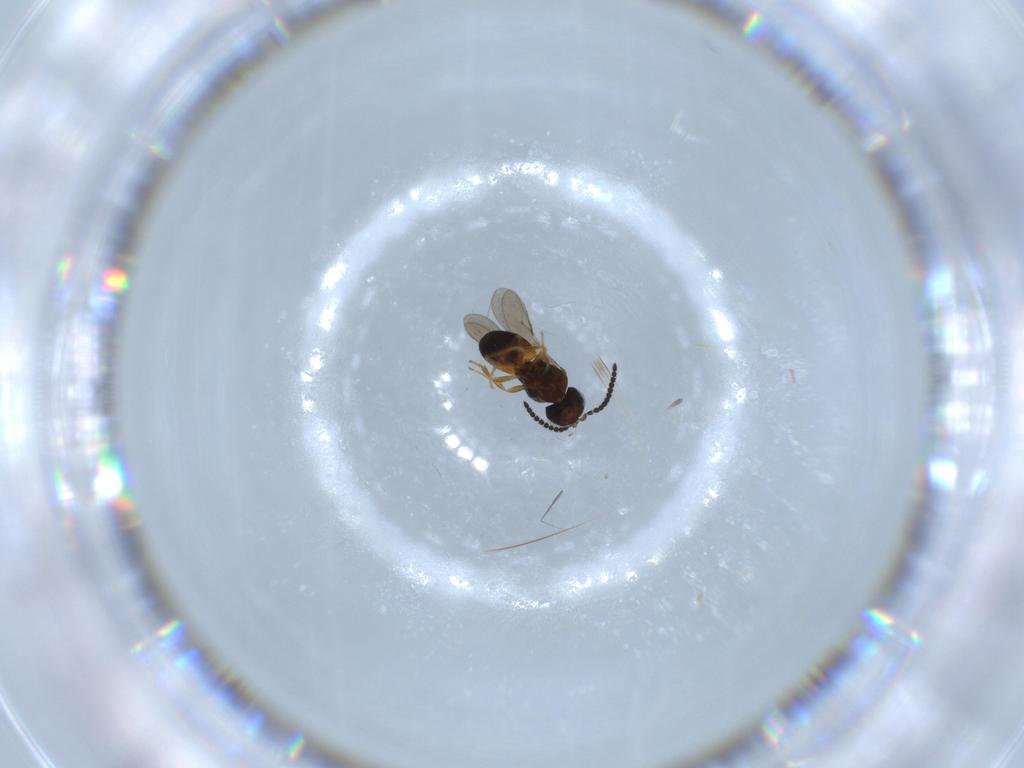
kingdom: Animalia
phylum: Arthropoda
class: Insecta
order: Hymenoptera
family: Scelionidae
